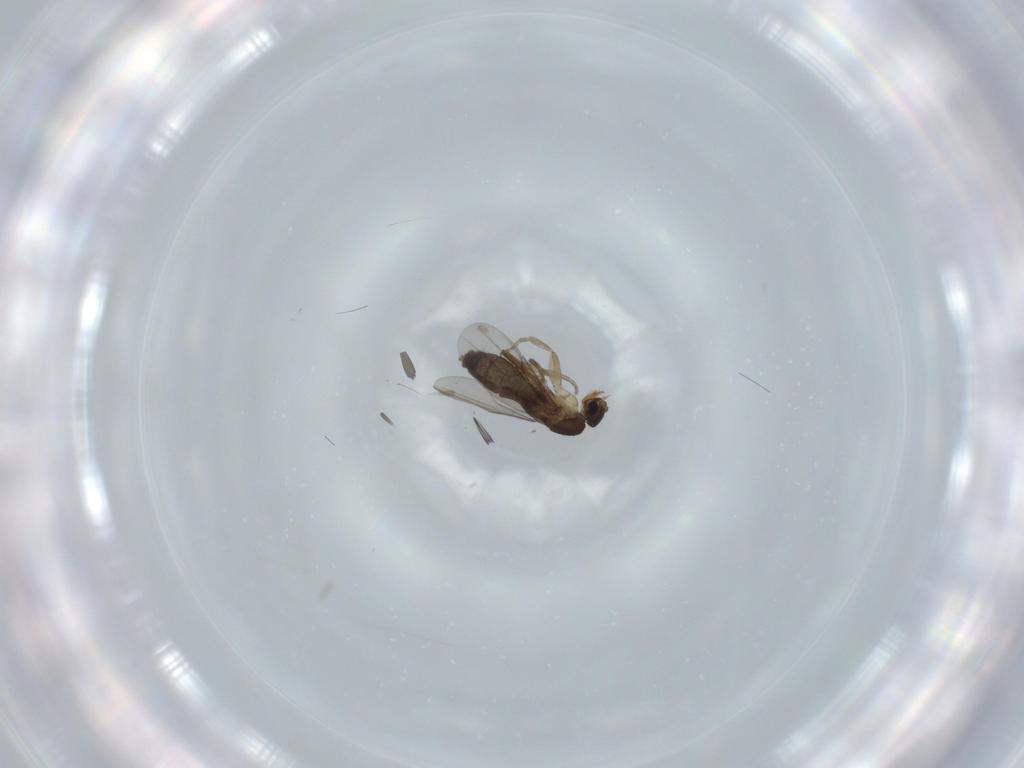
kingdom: Animalia
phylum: Arthropoda
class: Insecta
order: Diptera
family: Phoridae
